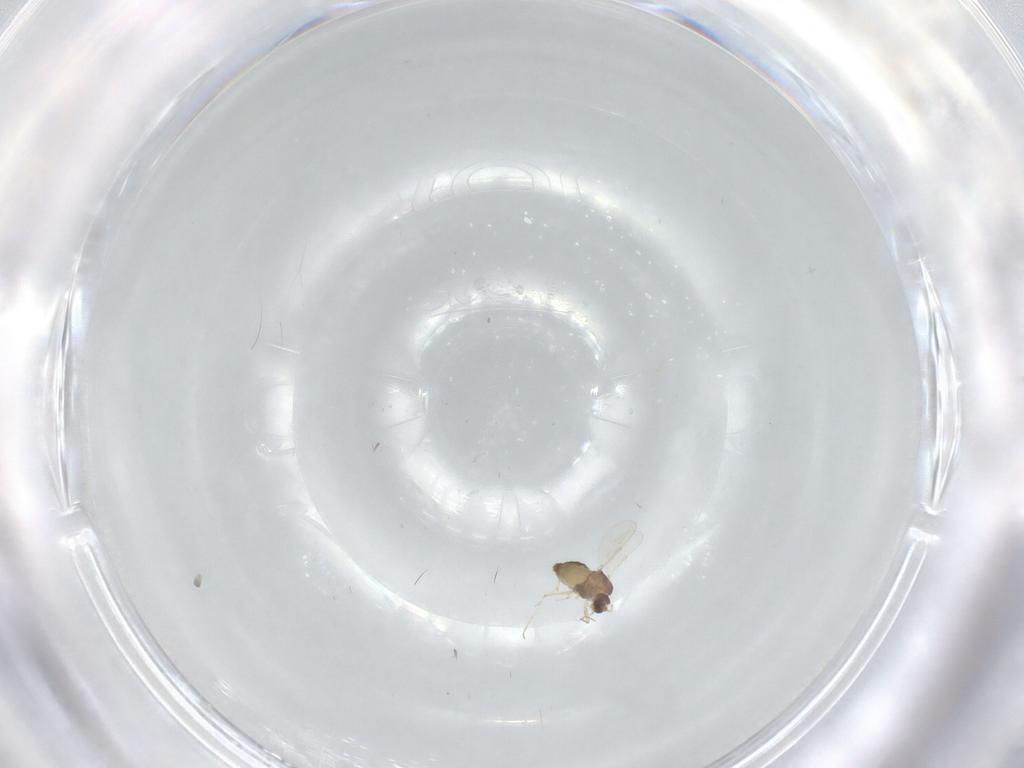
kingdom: Animalia
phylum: Arthropoda
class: Insecta
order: Diptera
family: Chironomidae
